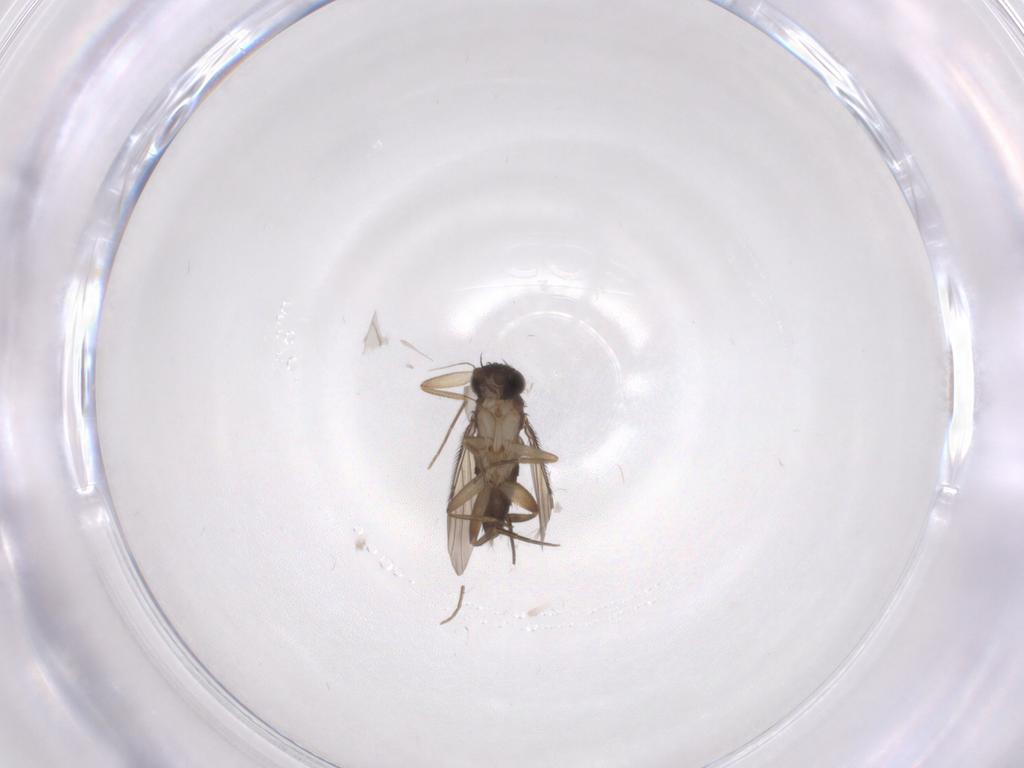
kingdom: Animalia
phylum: Arthropoda
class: Insecta
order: Diptera
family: Phoridae
